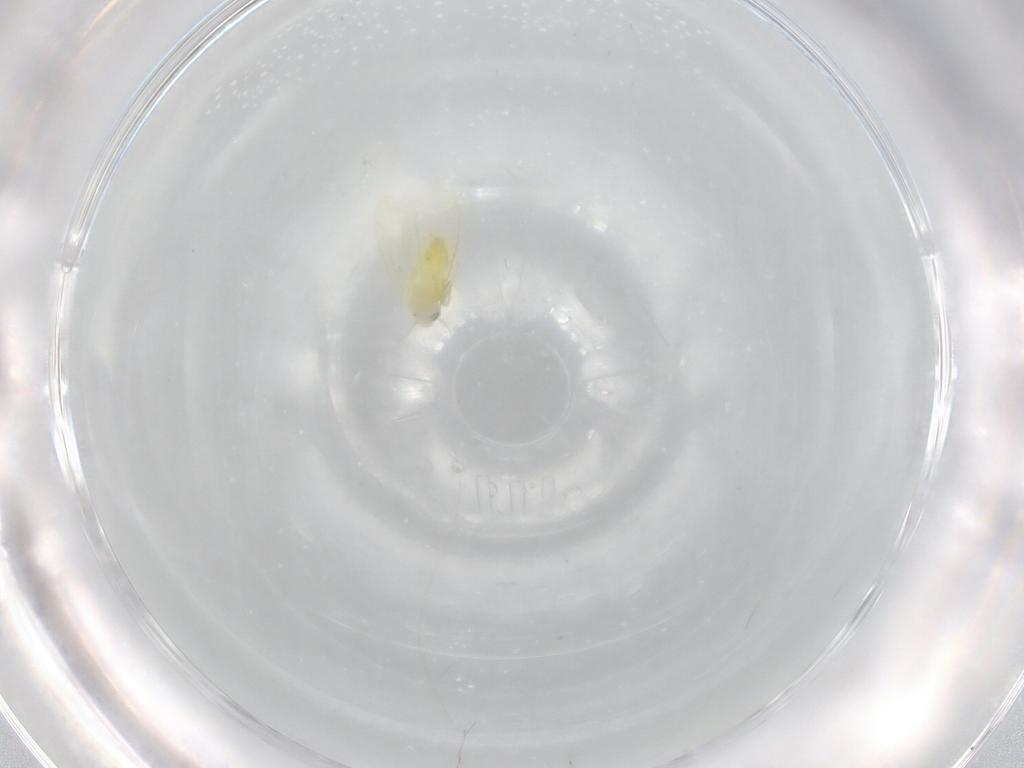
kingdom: Animalia
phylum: Arthropoda
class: Insecta
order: Hemiptera
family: Aleyrodidae
